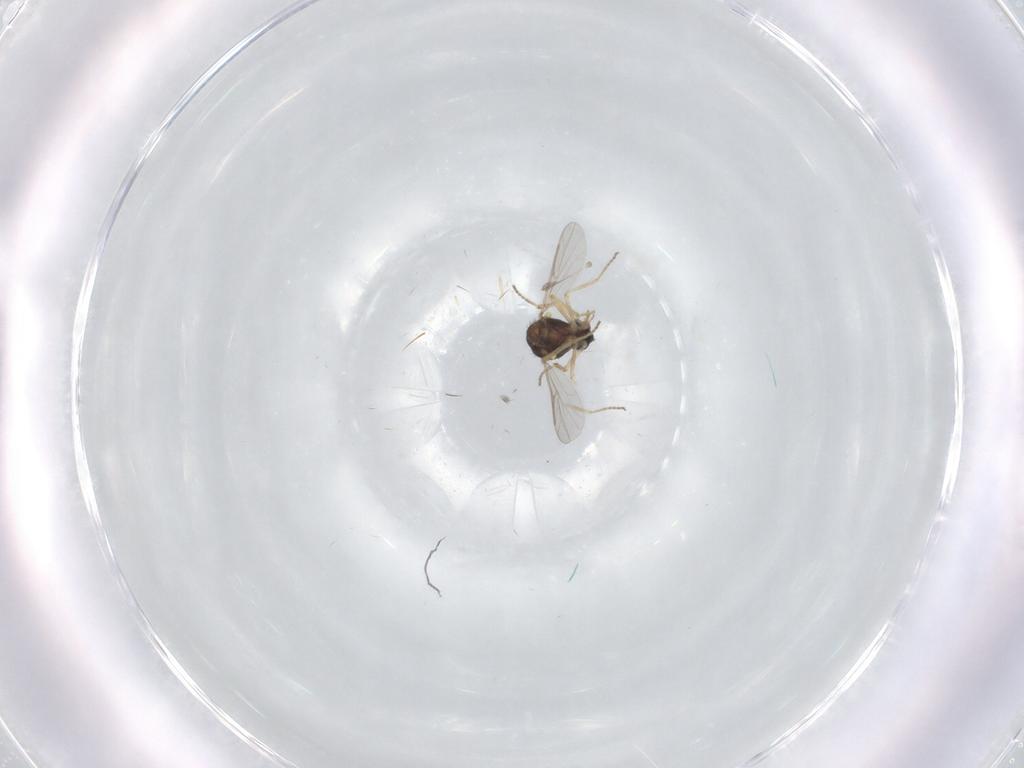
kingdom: Animalia
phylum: Arthropoda
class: Insecta
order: Diptera
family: Ceratopogonidae
